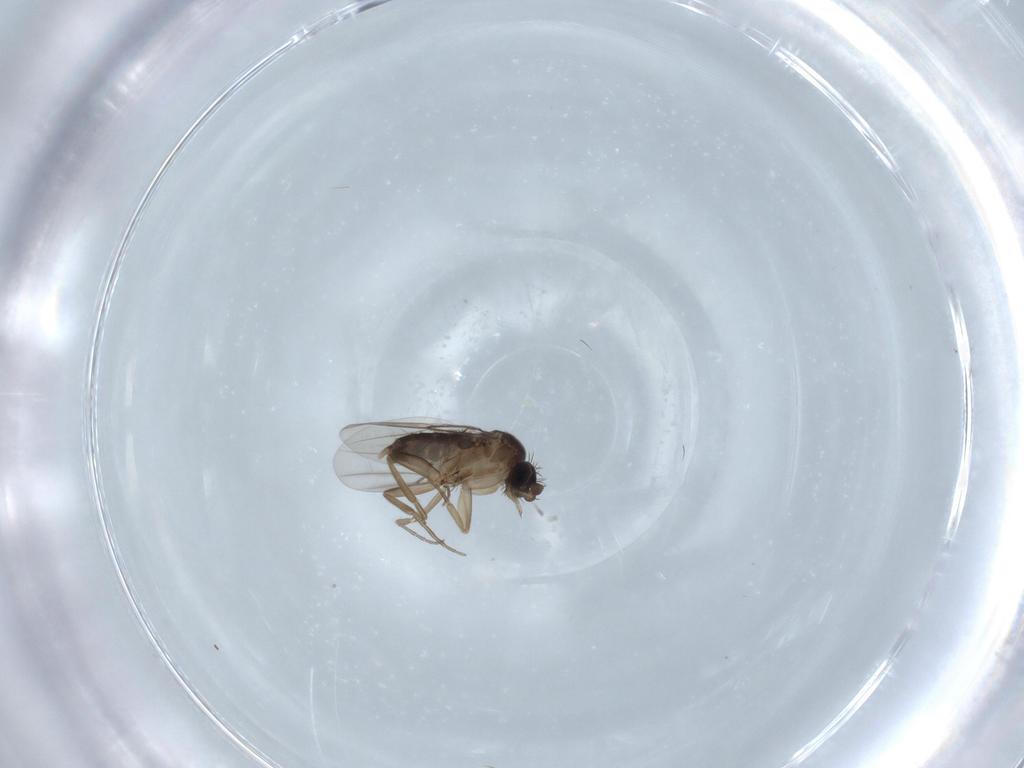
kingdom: Animalia
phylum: Arthropoda
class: Insecta
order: Diptera
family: Phoridae
